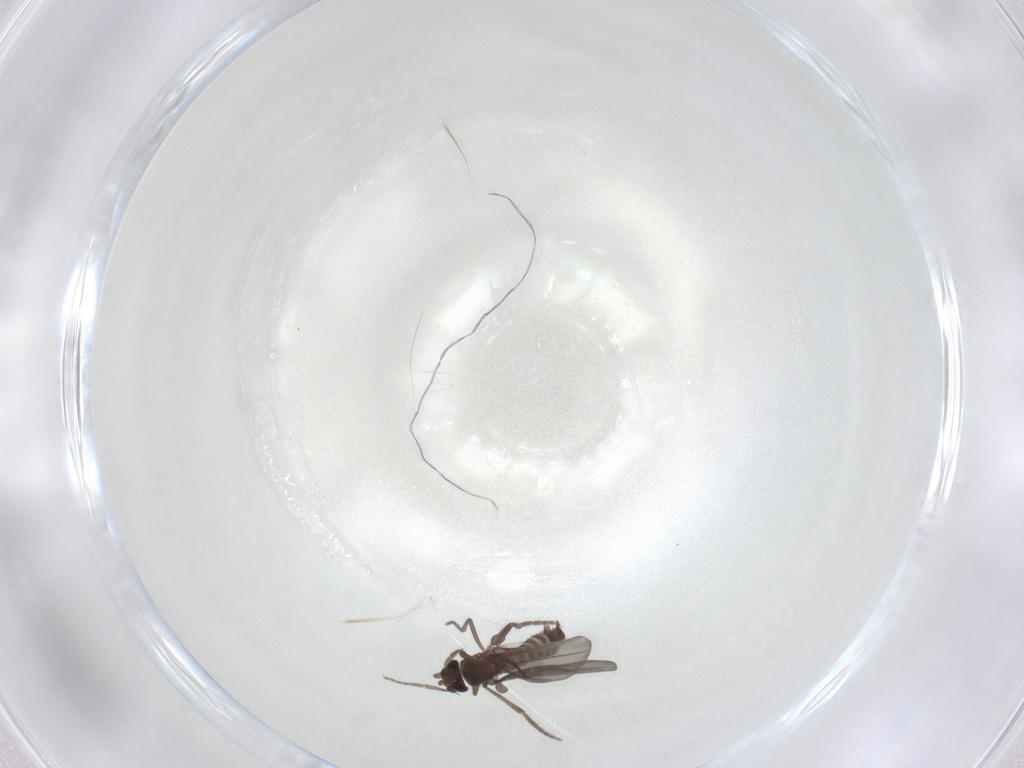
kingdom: Animalia
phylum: Arthropoda
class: Insecta
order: Diptera
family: Phoridae
